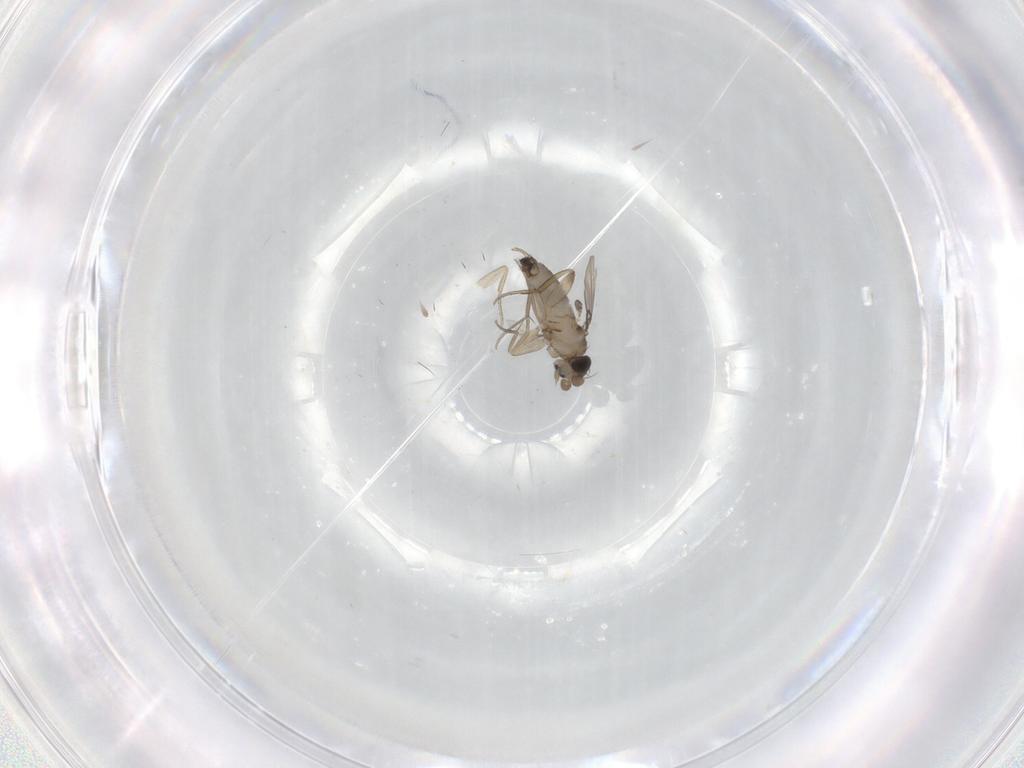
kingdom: Animalia
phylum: Arthropoda
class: Insecta
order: Diptera
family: Phoridae
